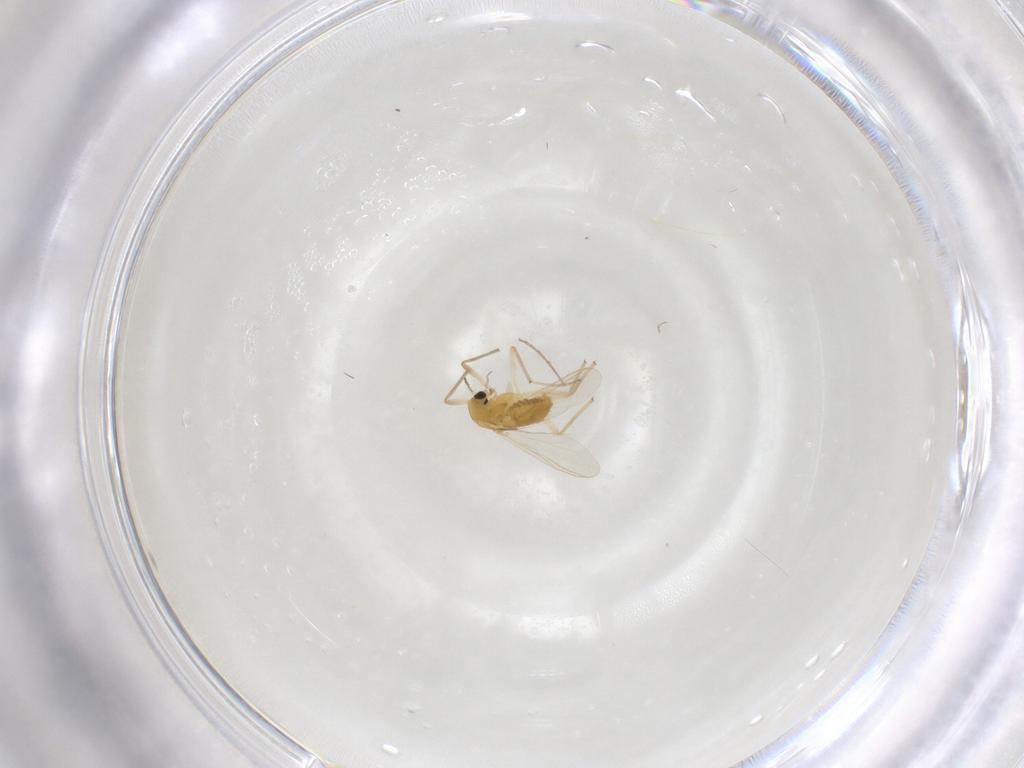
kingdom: Animalia
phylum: Arthropoda
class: Insecta
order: Diptera
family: Chironomidae
